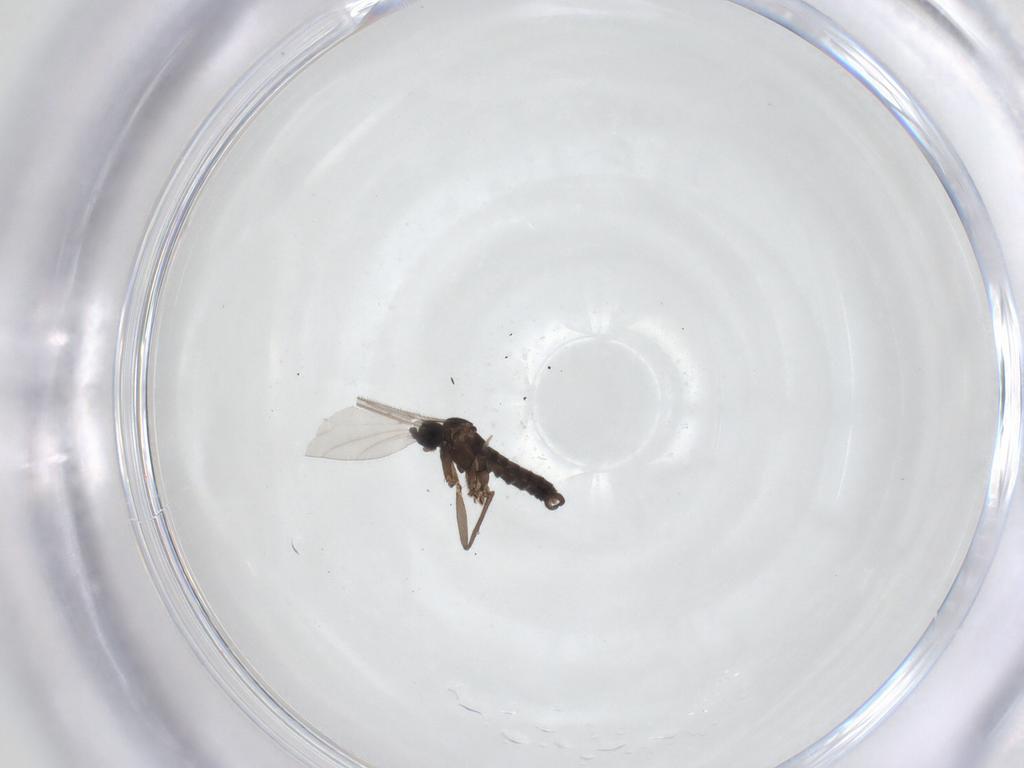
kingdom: Animalia
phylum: Arthropoda
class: Insecta
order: Diptera
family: Sciaridae
